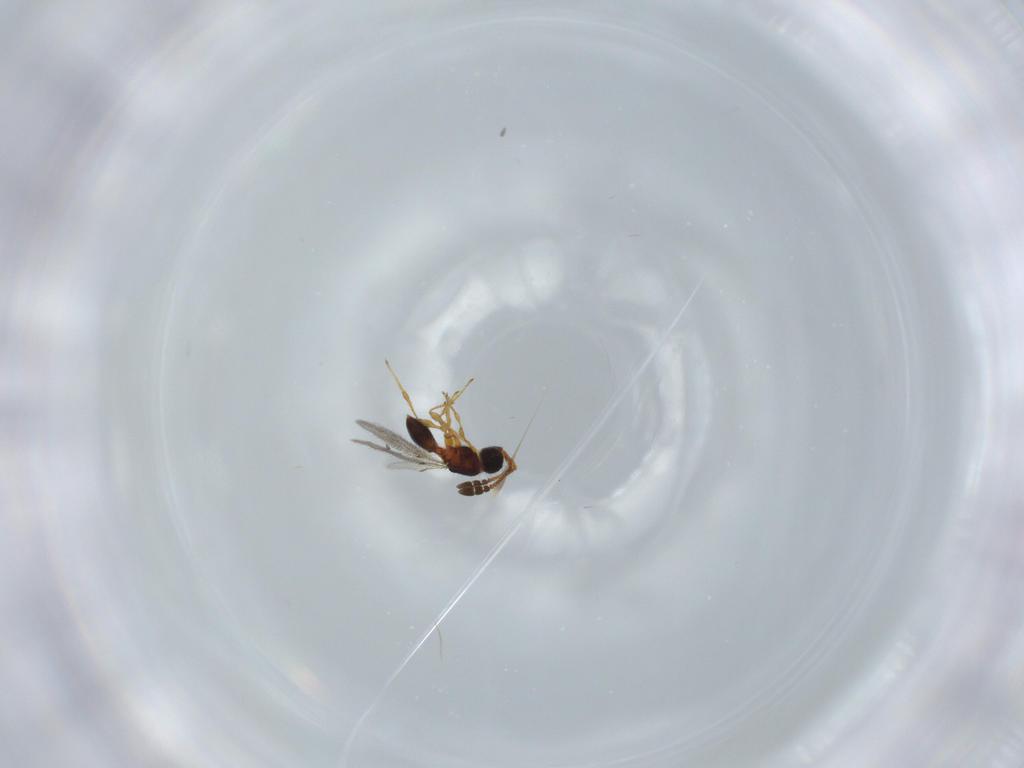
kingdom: Animalia
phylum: Arthropoda
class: Insecta
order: Hymenoptera
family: Diapriidae
